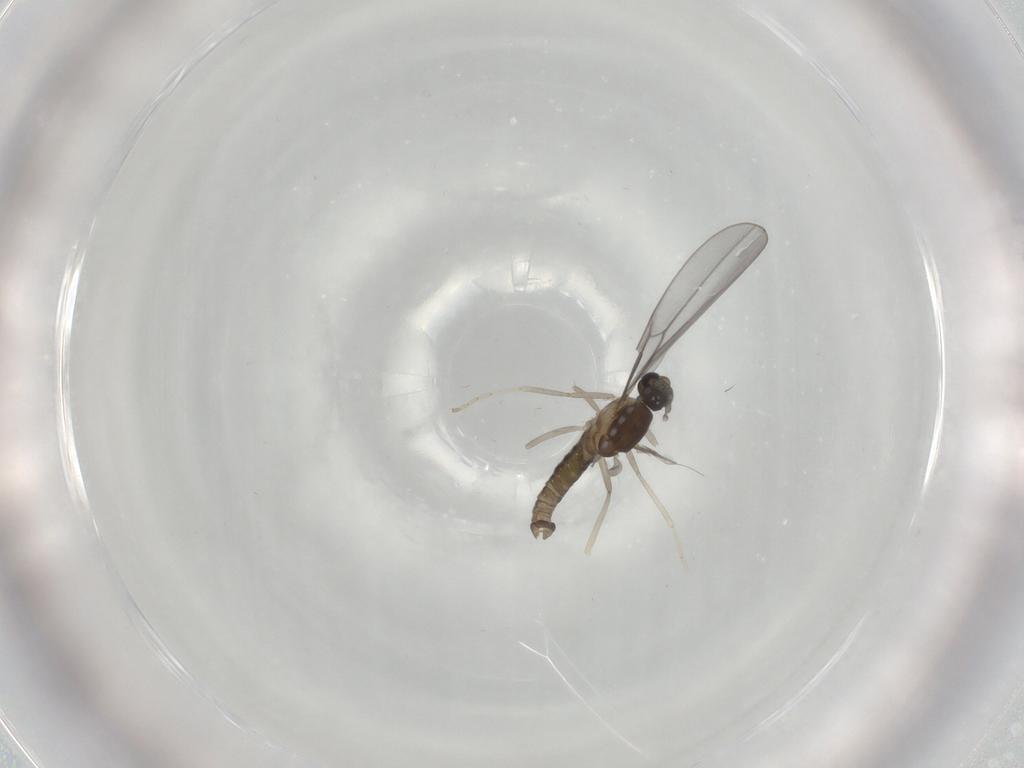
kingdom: Animalia
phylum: Arthropoda
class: Insecta
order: Diptera
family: Cecidomyiidae
